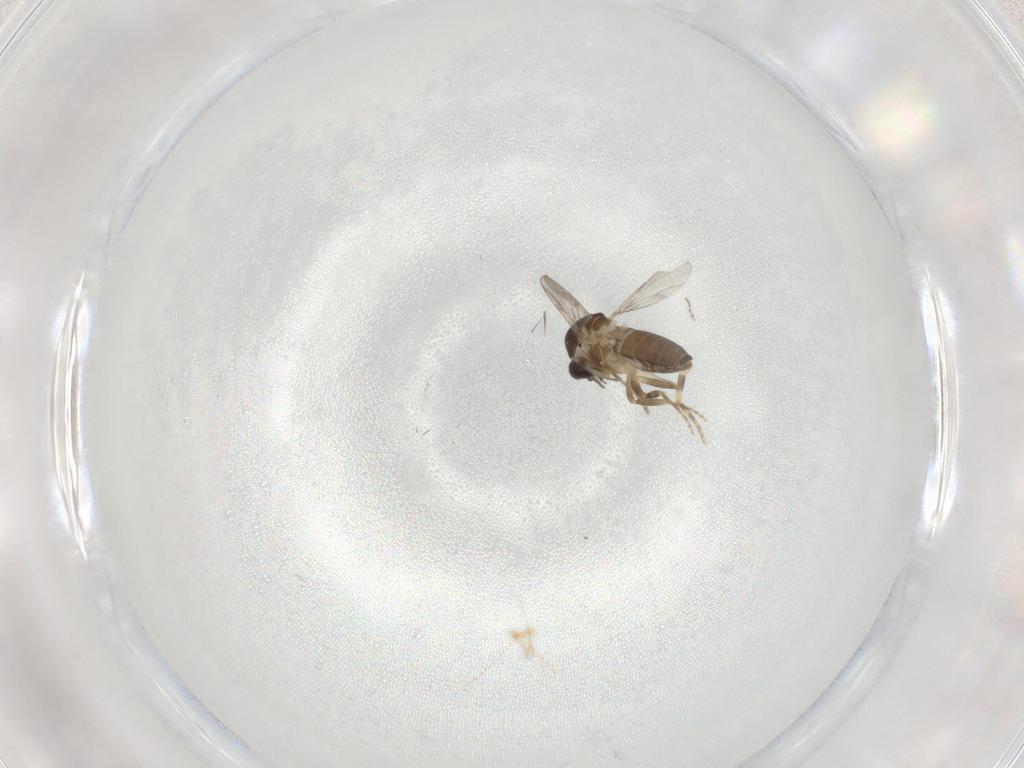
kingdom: Animalia
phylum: Arthropoda
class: Insecta
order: Diptera
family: Ceratopogonidae
